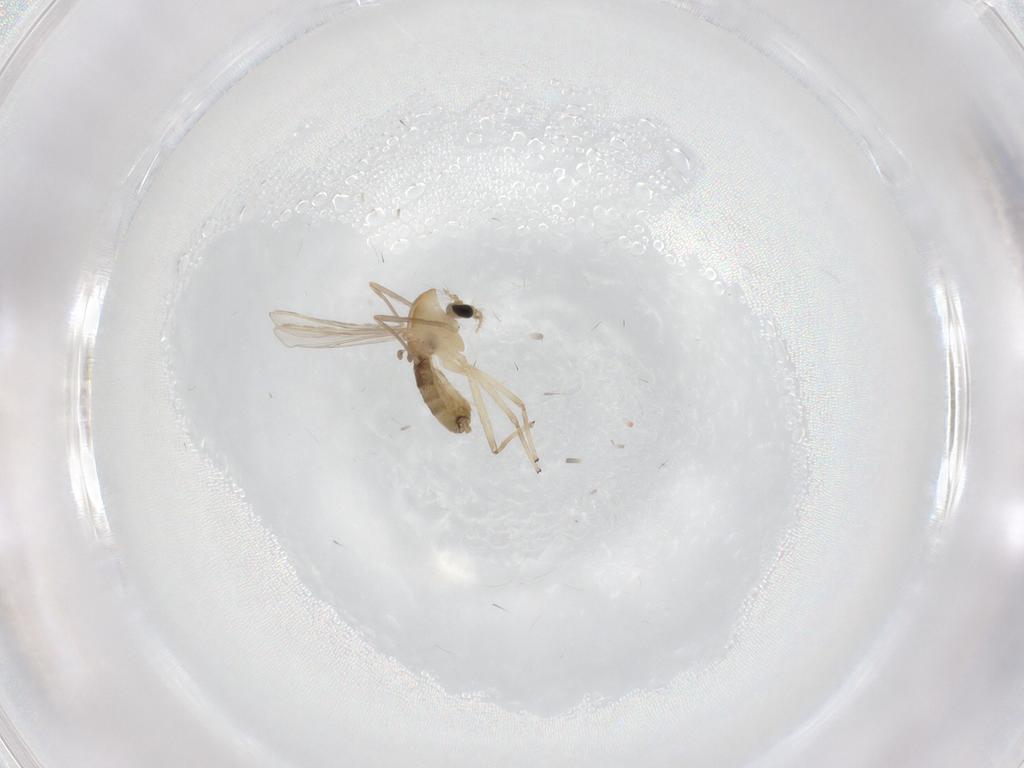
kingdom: Animalia
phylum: Arthropoda
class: Insecta
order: Diptera
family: Chironomidae
